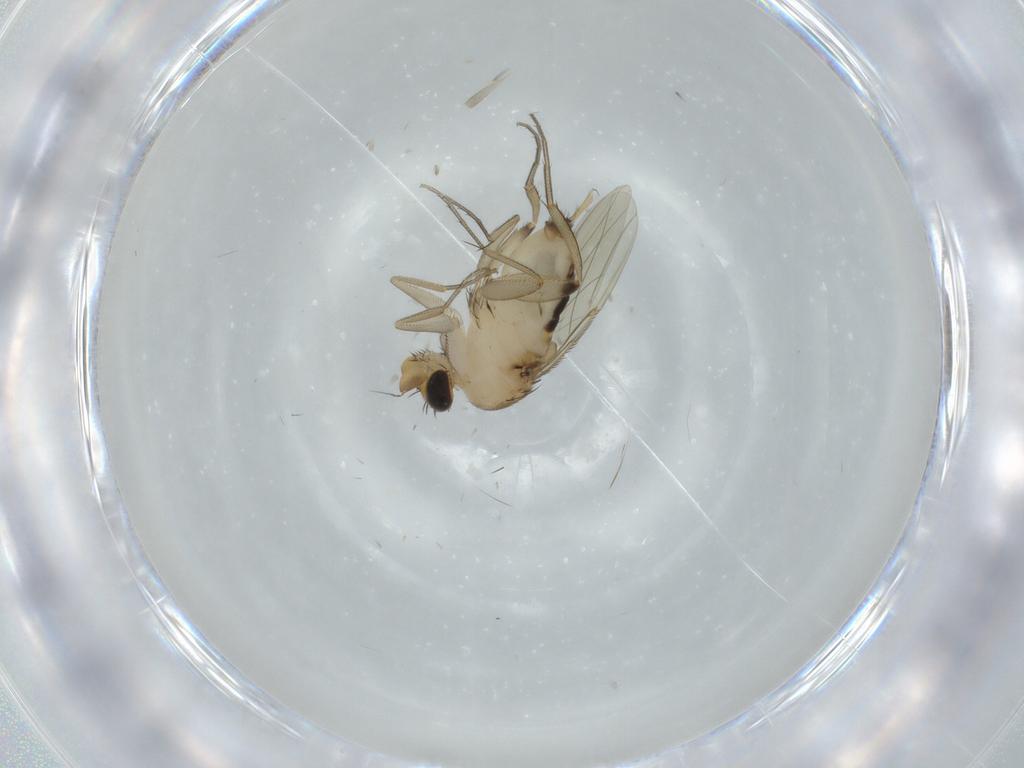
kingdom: Animalia
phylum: Arthropoda
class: Insecta
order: Diptera
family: Phoridae
